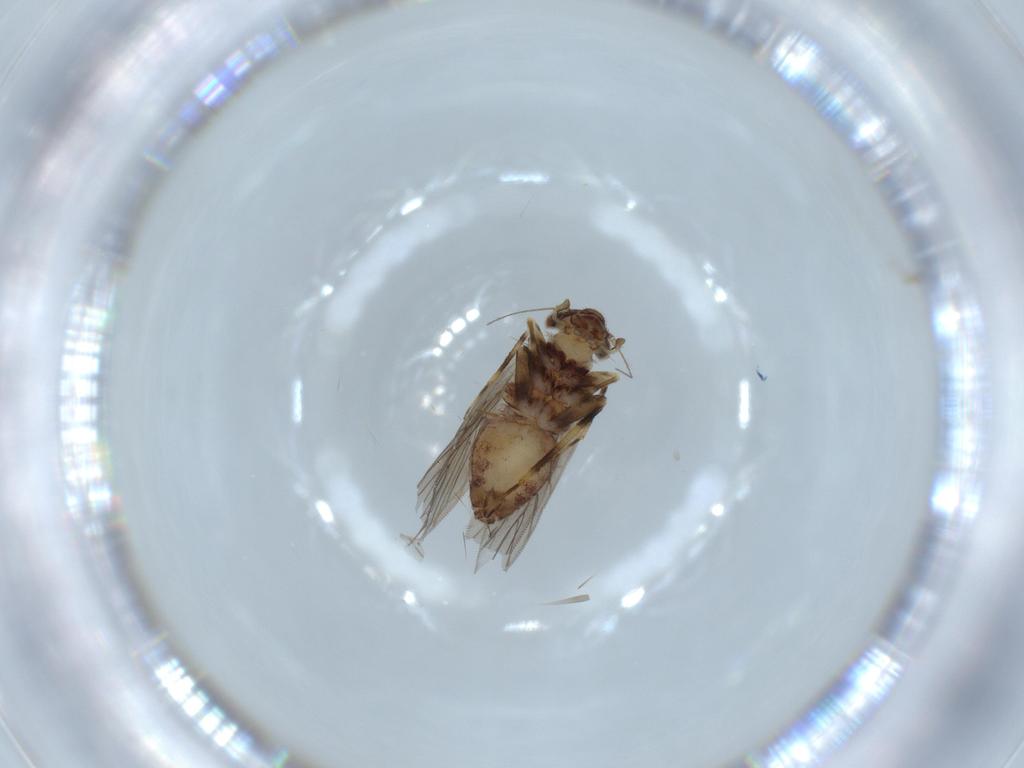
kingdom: Animalia
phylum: Arthropoda
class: Insecta
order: Psocodea
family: Lepidopsocidae
